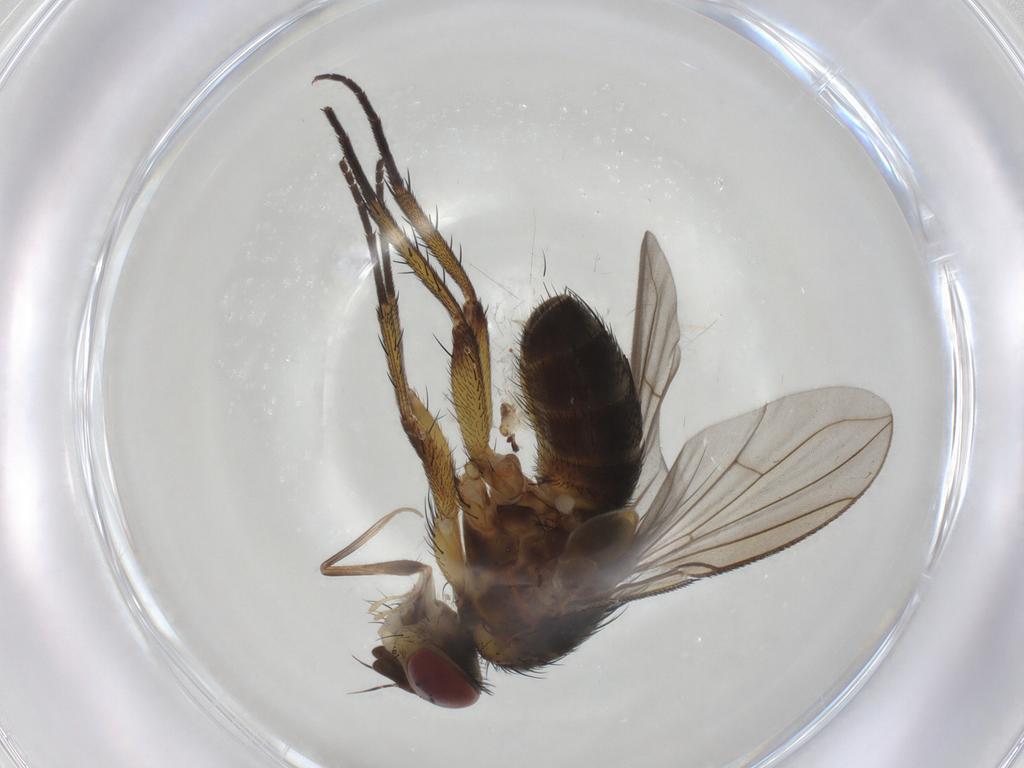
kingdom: Animalia
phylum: Arthropoda
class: Insecta
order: Diptera
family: Tachinidae
